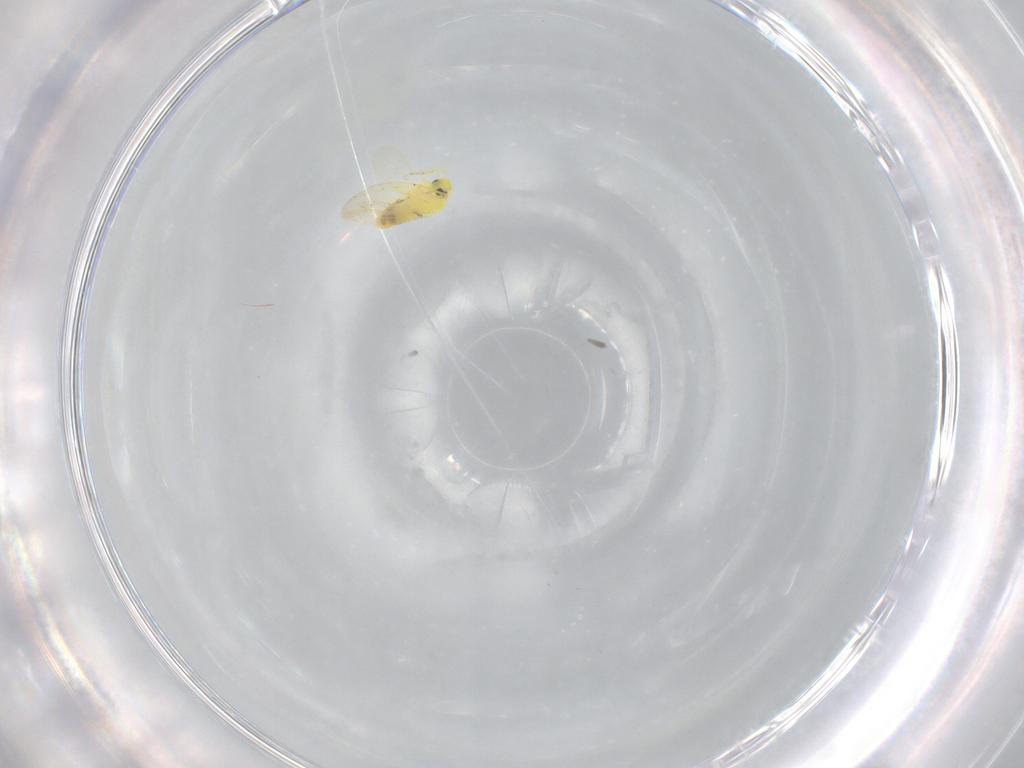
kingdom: Animalia
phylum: Arthropoda
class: Insecta
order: Hemiptera
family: Aleyrodidae
